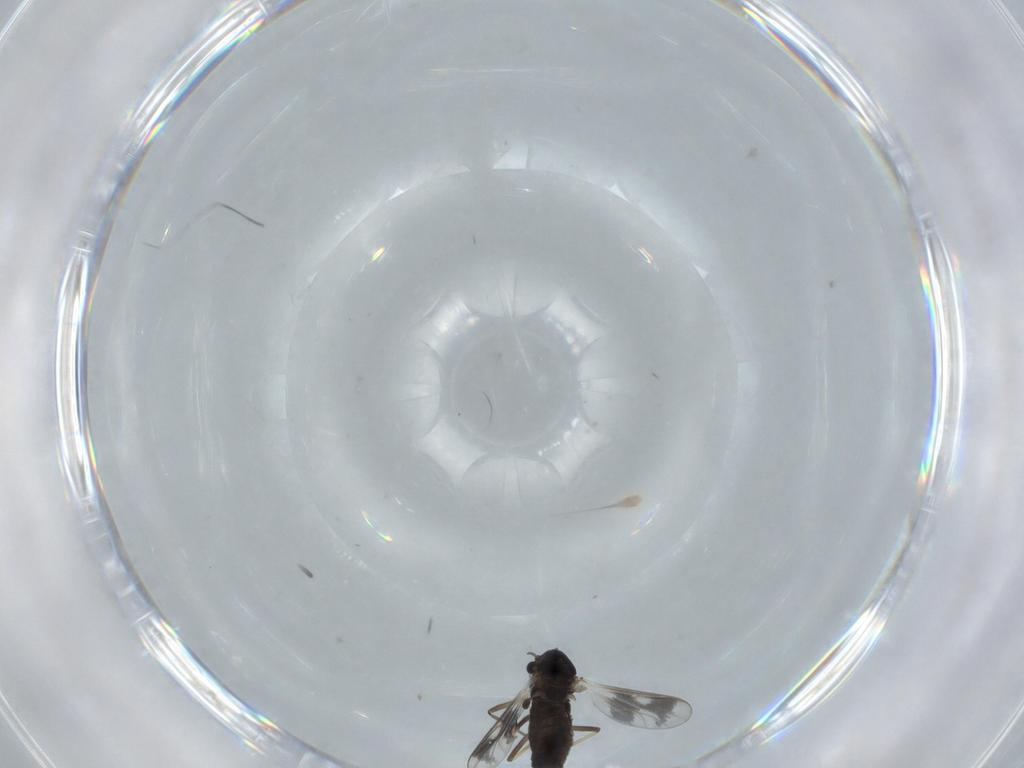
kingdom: Animalia
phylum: Arthropoda
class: Insecta
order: Diptera
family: Chironomidae
